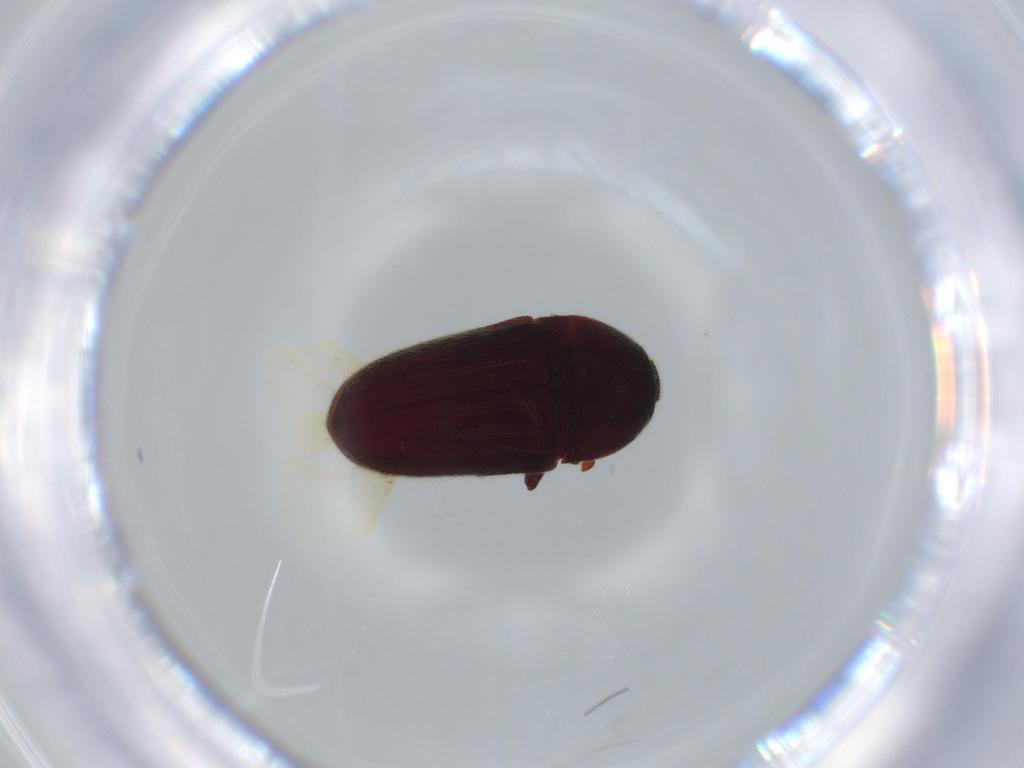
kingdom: Animalia
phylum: Arthropoda
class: Insecta
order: Coleoptera
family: Throscidae
